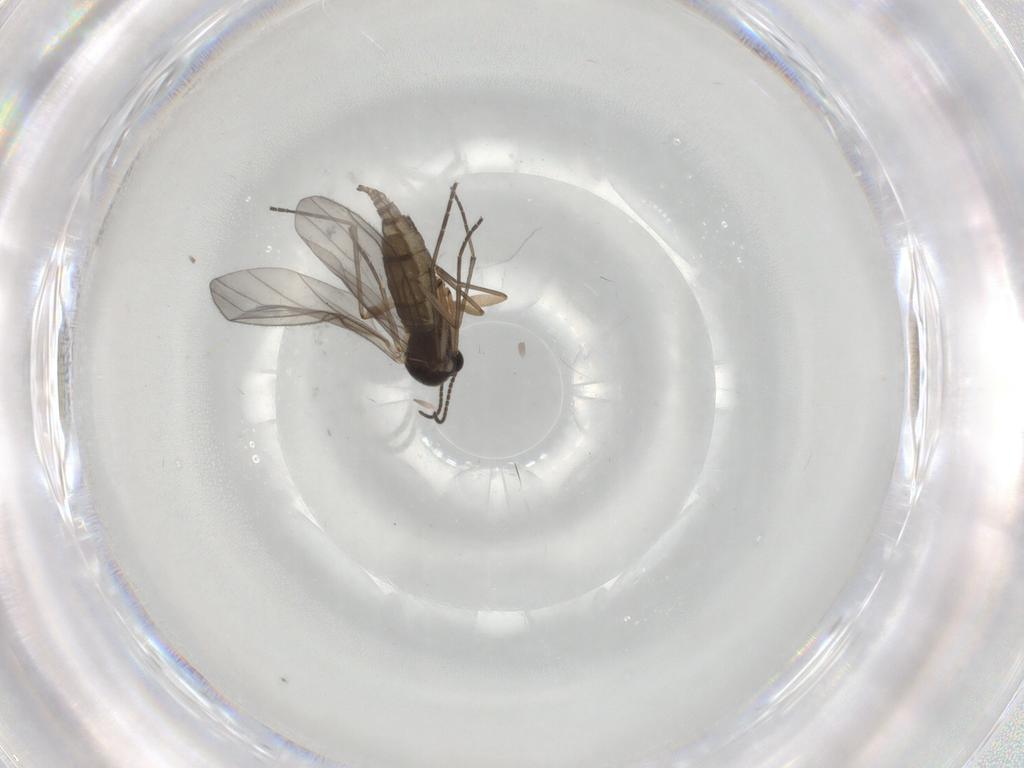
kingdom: Animalia
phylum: Arthropoda
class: Insecta
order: Diptera
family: Sciaridae
